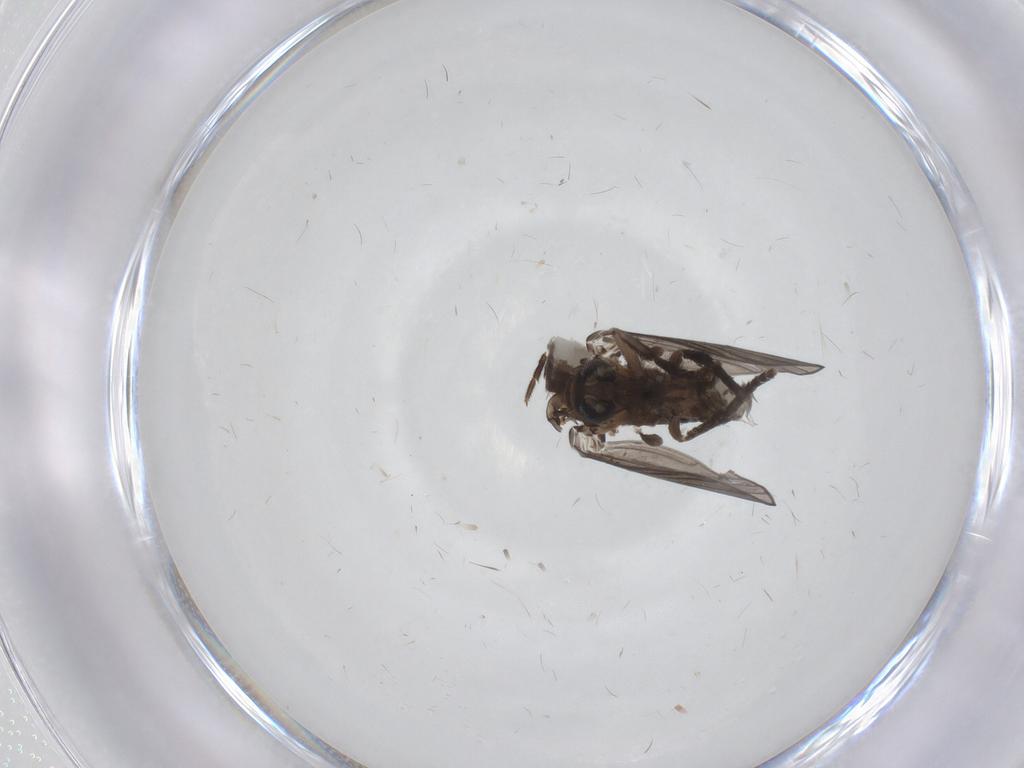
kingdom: Animalia
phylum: Arthropoda
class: Insecta
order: Diptera
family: Psychodidae
